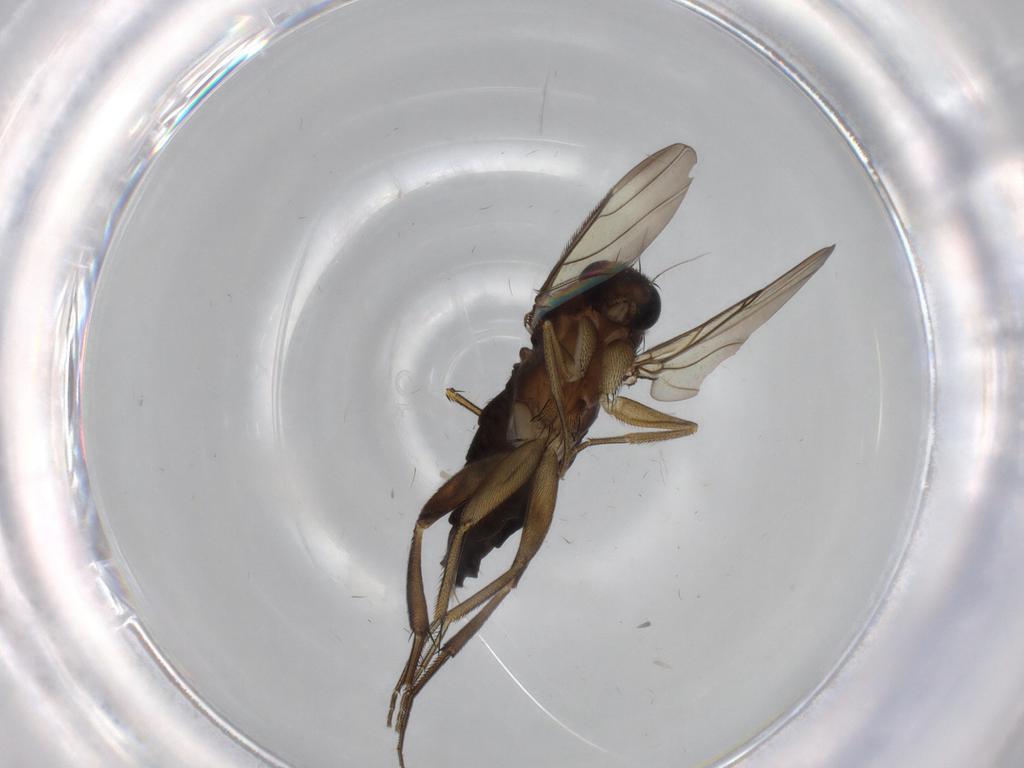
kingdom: Animalia
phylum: Arthropoda
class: Insecta
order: Diptera
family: Phoridae
